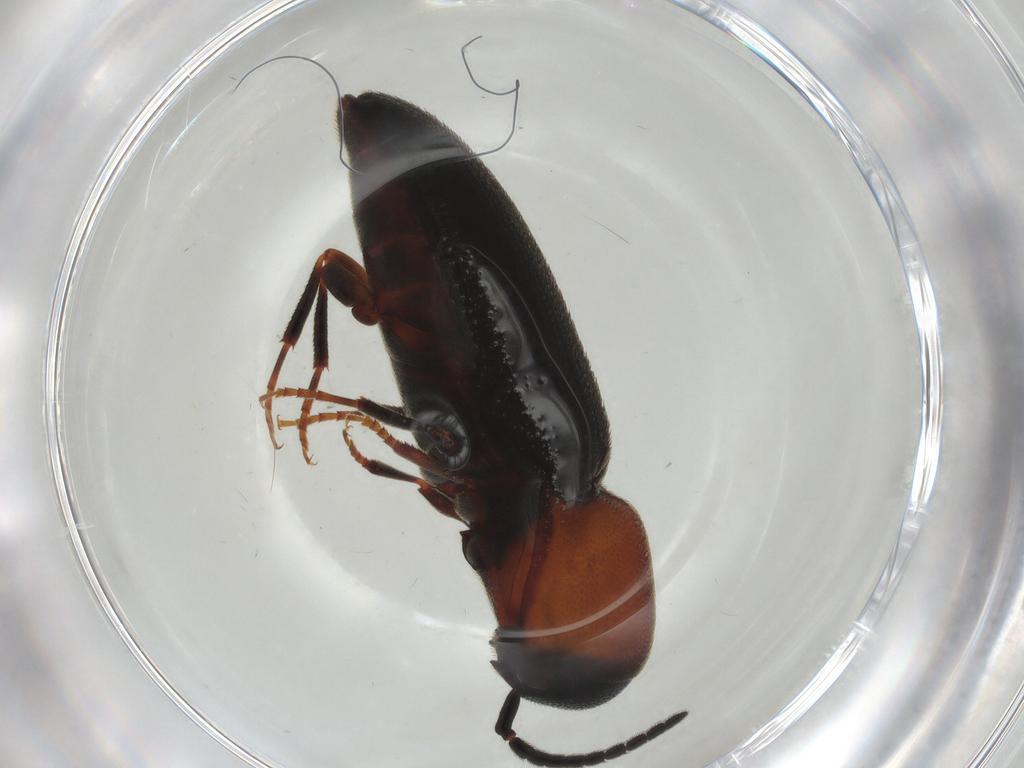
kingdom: Animalia
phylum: Arthropoda
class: Insecta
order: Coleoptera
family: Eucnemidae
